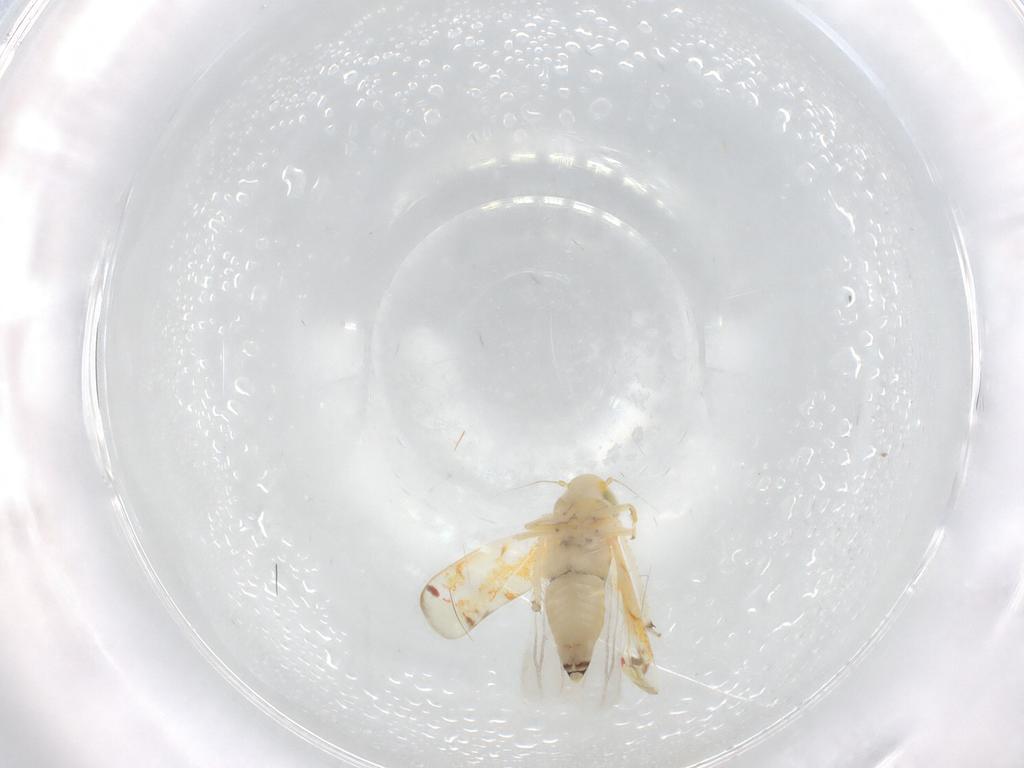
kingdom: Animalia
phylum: Arthropoda
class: Insecta
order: Hemiptera
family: Cicadellidae
